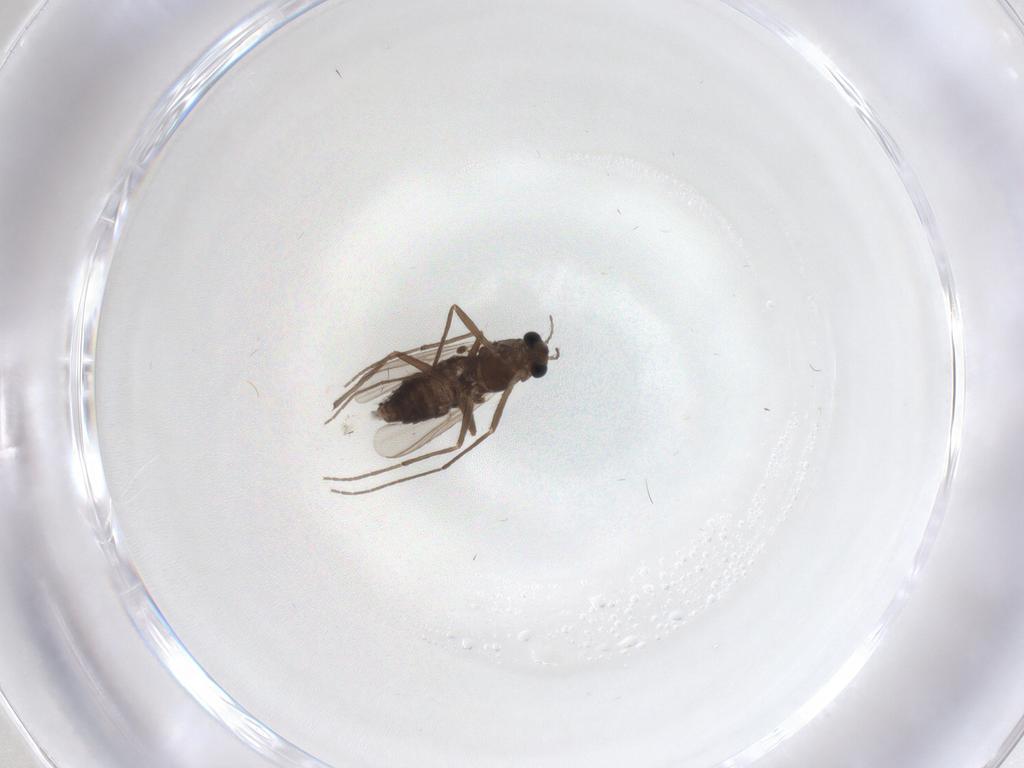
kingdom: Animalia
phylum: Arthropoda
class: Insecta
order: Diptera
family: Chironomidae
